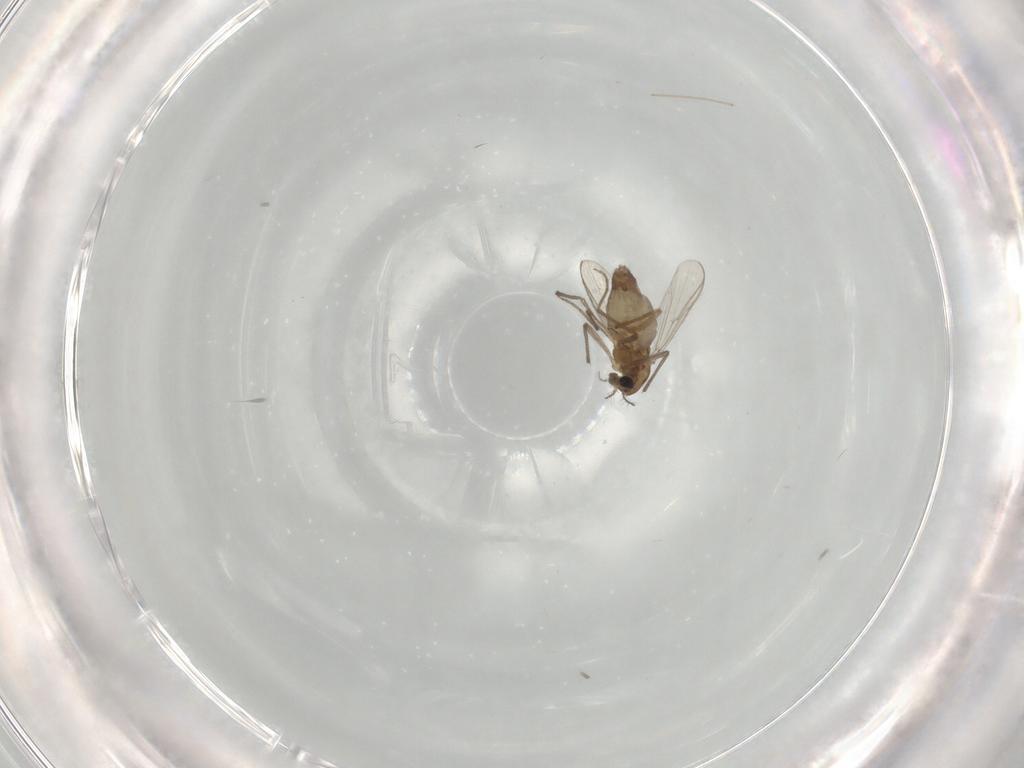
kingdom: Animalia
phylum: Arthropoda
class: Insecta
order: Diptera
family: Chironomidae
